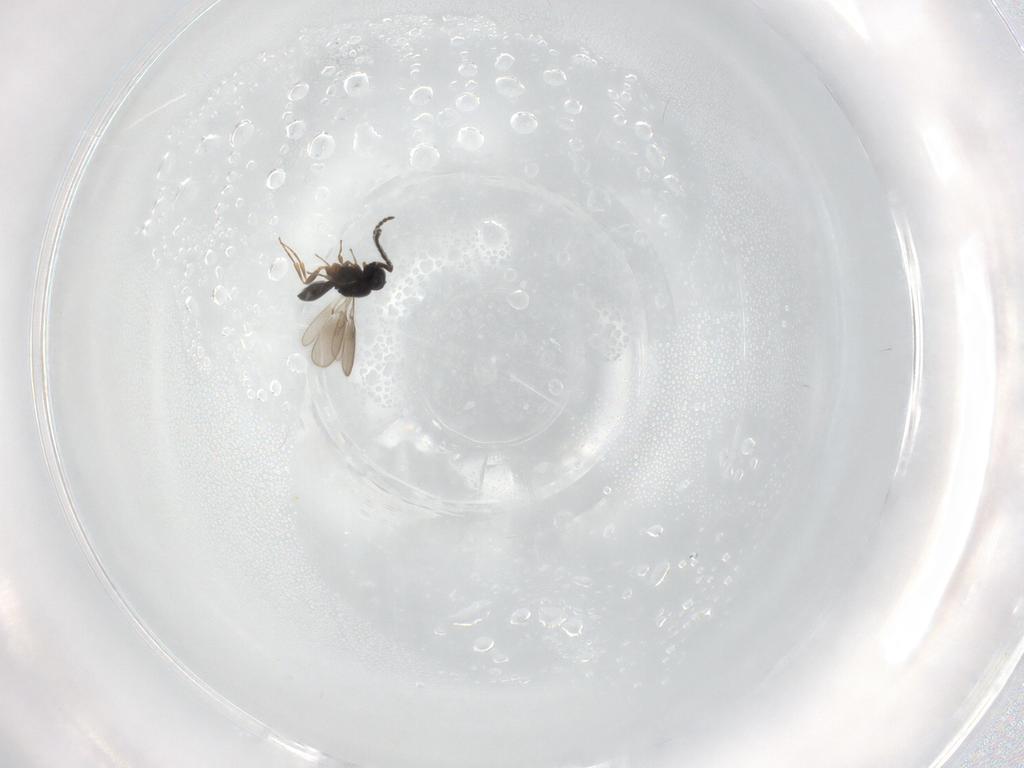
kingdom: Animalia
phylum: Arthropoda
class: Insecta
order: Hymenoptera
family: Scelionidae
